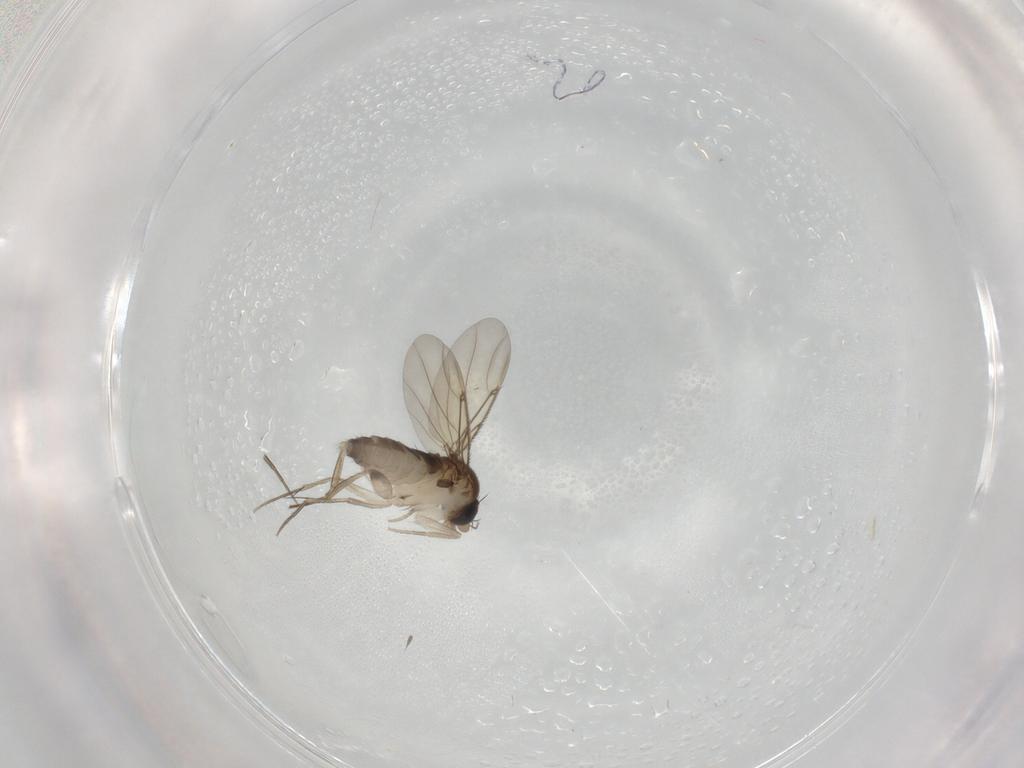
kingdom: Animalia
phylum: Arthropoda
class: Insecta
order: Diptera
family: Phoridae
